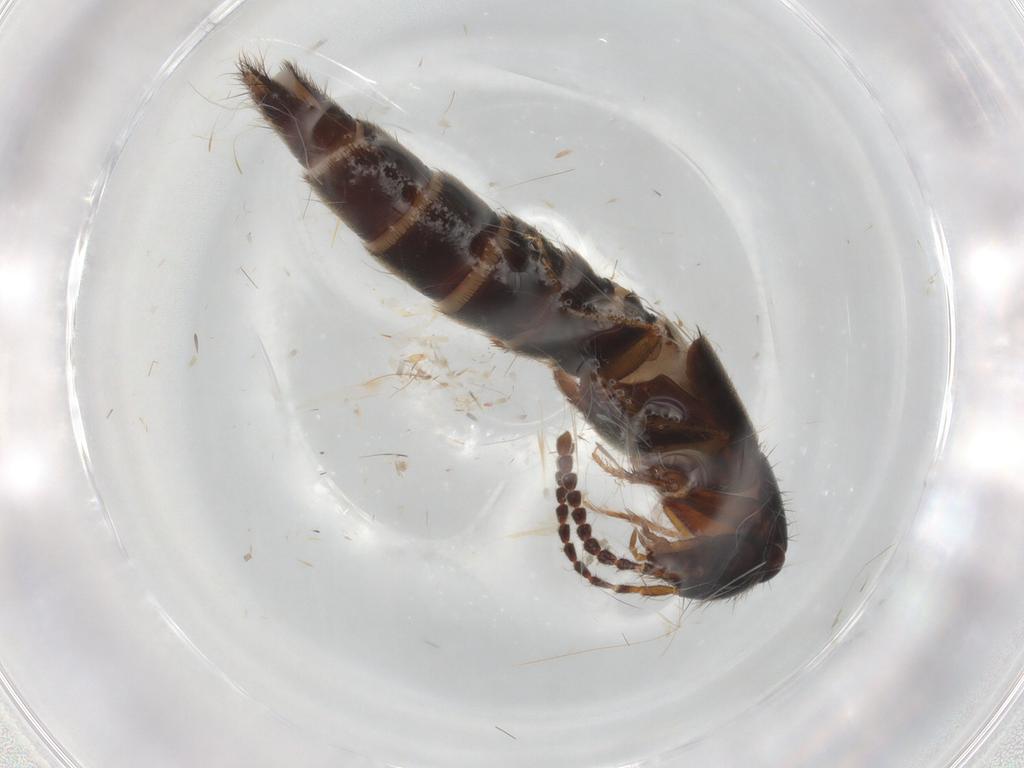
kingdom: Animalia
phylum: Arthropoda
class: Insecta
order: Coleoptera
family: Staphylinidae
